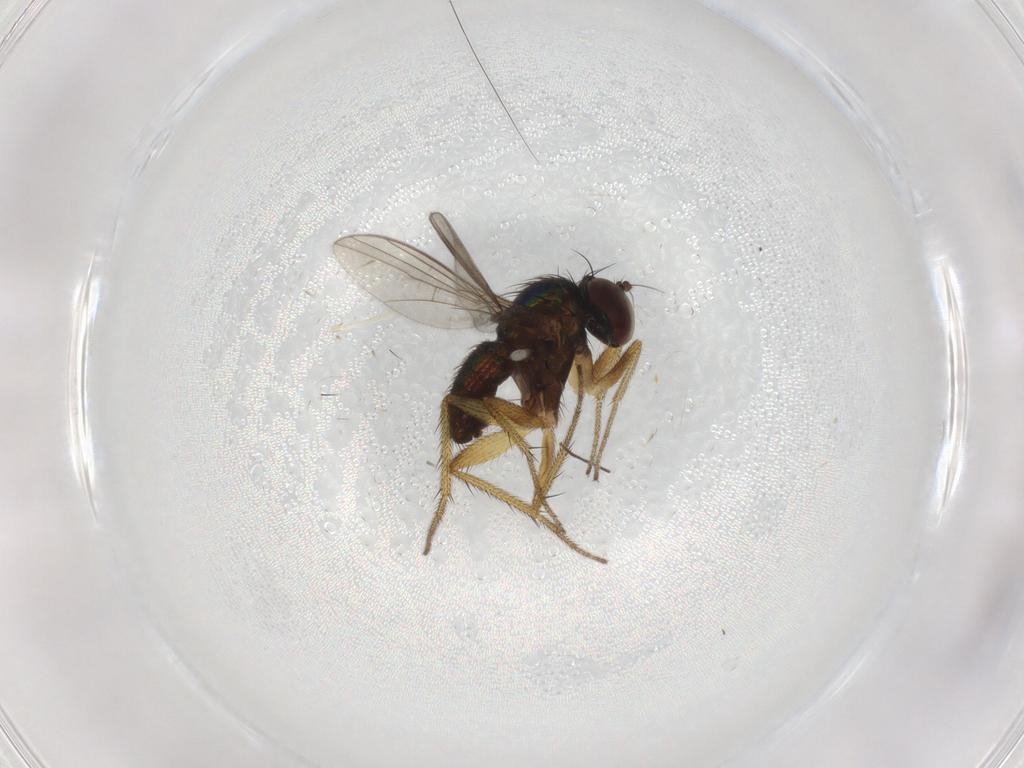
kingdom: Animalia
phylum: Arthropoda
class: Insecta
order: Diptera
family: Dolichopodidae
